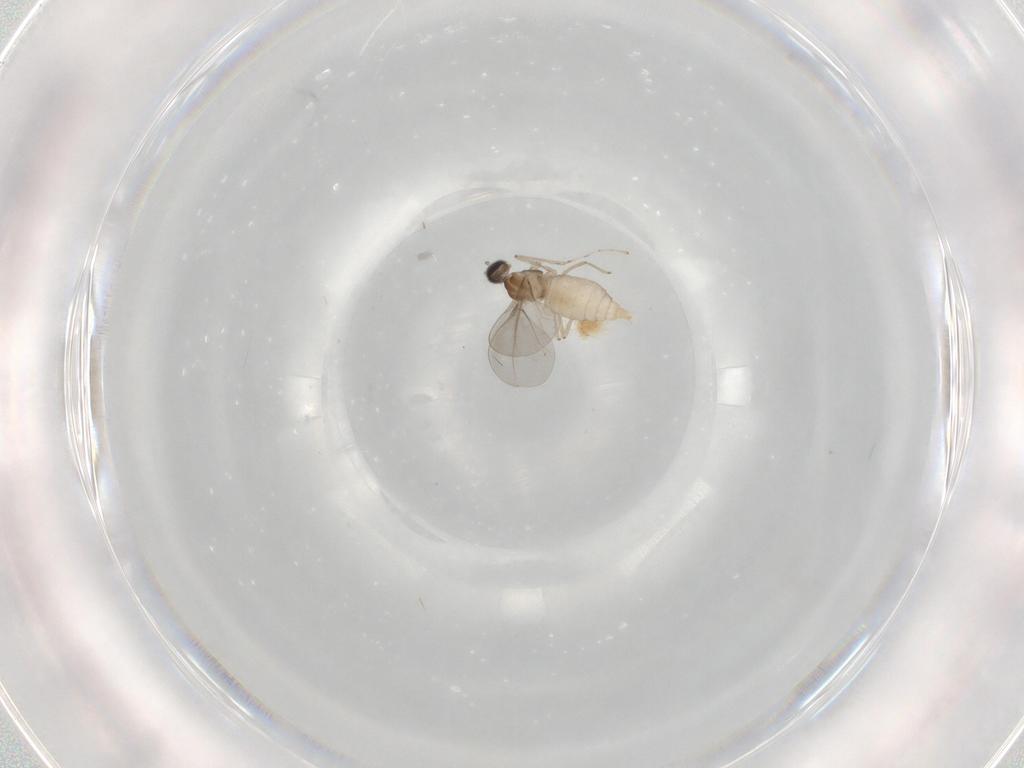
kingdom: Animalia
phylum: Arthropoda
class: Insecta
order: Diptera
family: Cecidomyiidae
